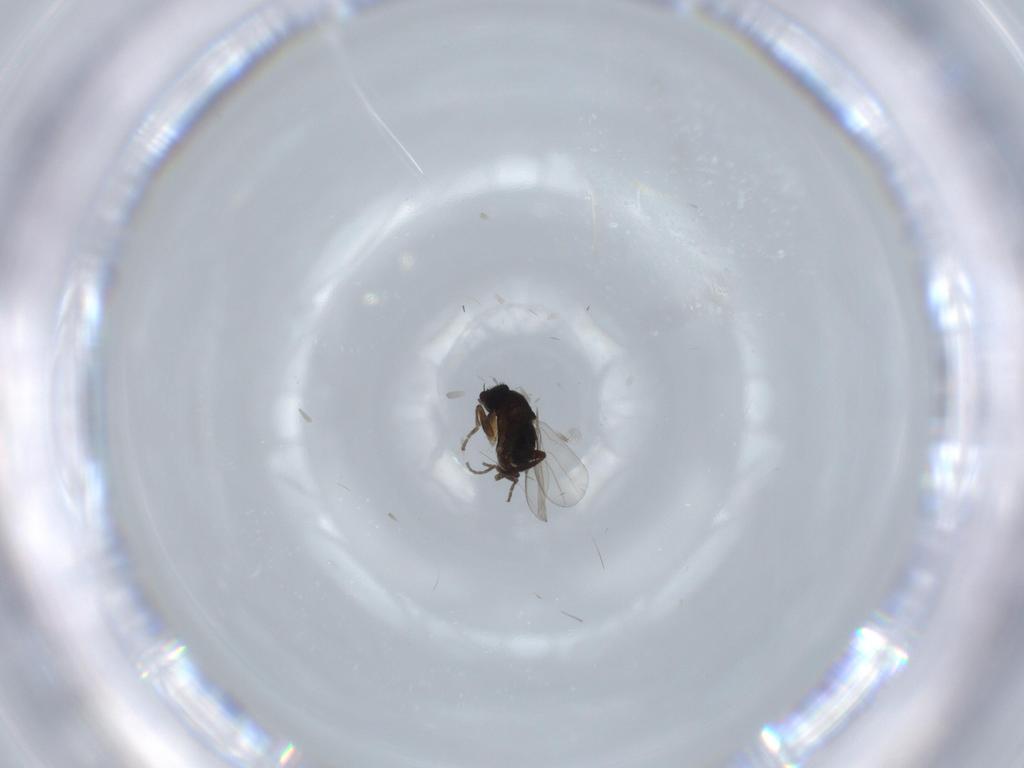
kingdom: Animalia
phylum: Arthropoda
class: Insecta
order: Diptera
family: Phoridae
